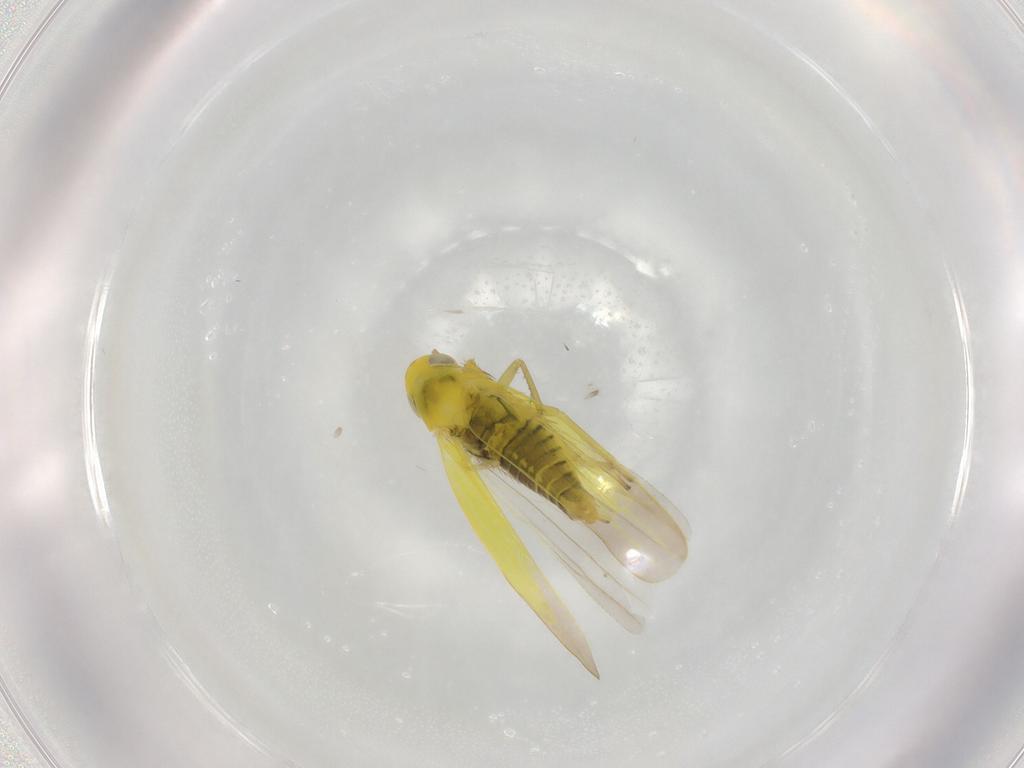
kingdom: Animalia
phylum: Arthropoda
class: Insecta
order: Hemiptera
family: Cicadellidae
